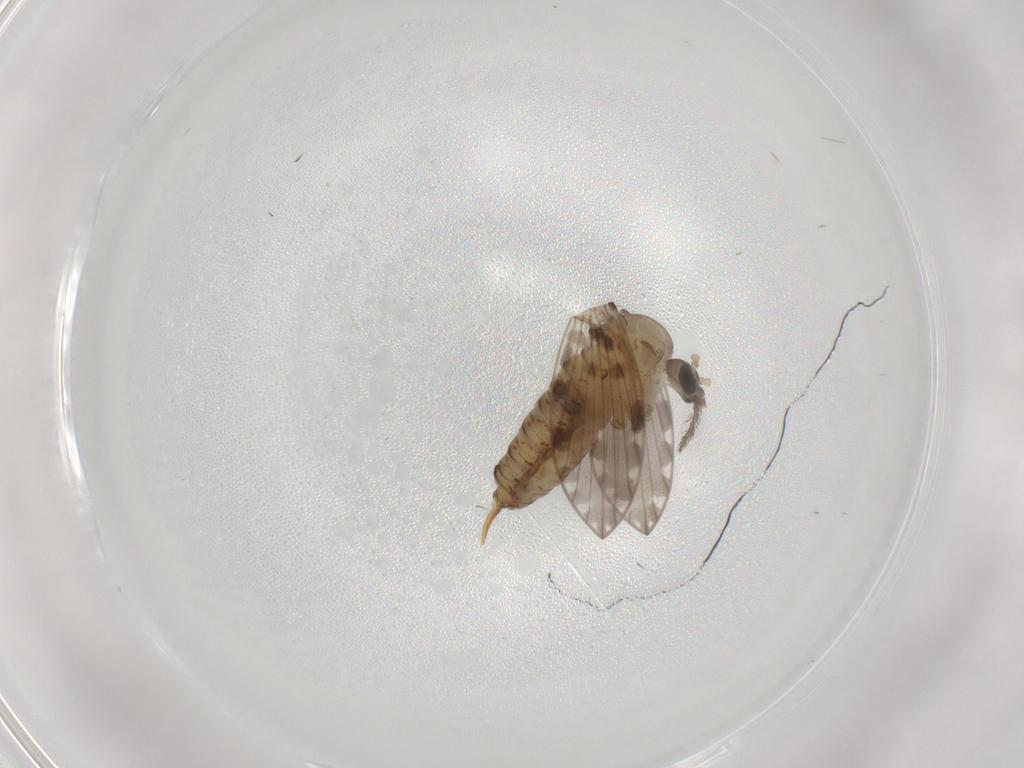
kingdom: Animalia
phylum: Arthropoda
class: Insecta
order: Diptera
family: Psychodidae
